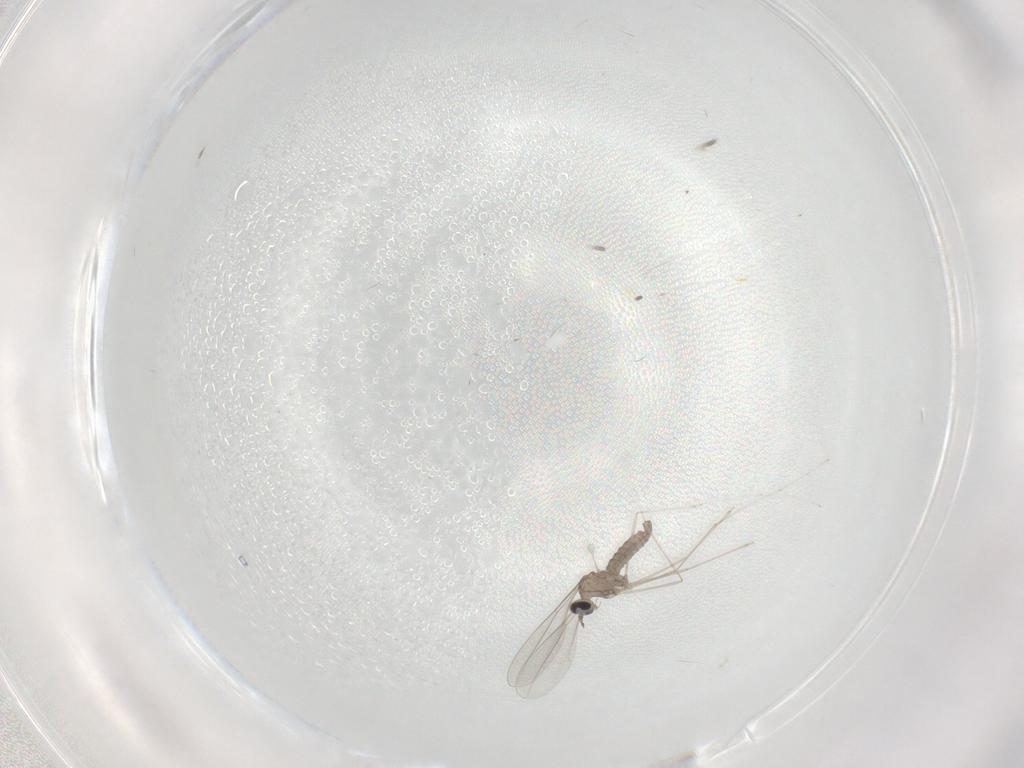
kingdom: Animalia
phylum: Arthropoda
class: Insecta
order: Diptera
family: Cecidomyiidae
